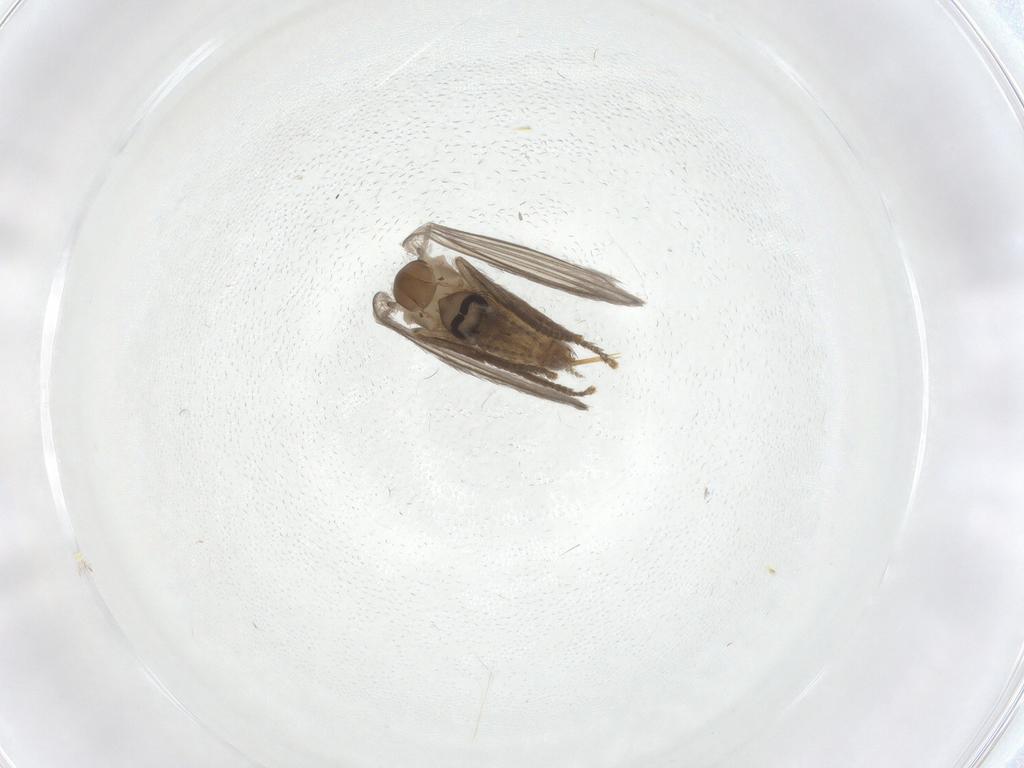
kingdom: Animalia
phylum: Arthropoda
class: Insecta
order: Diptera
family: Psychodidae
